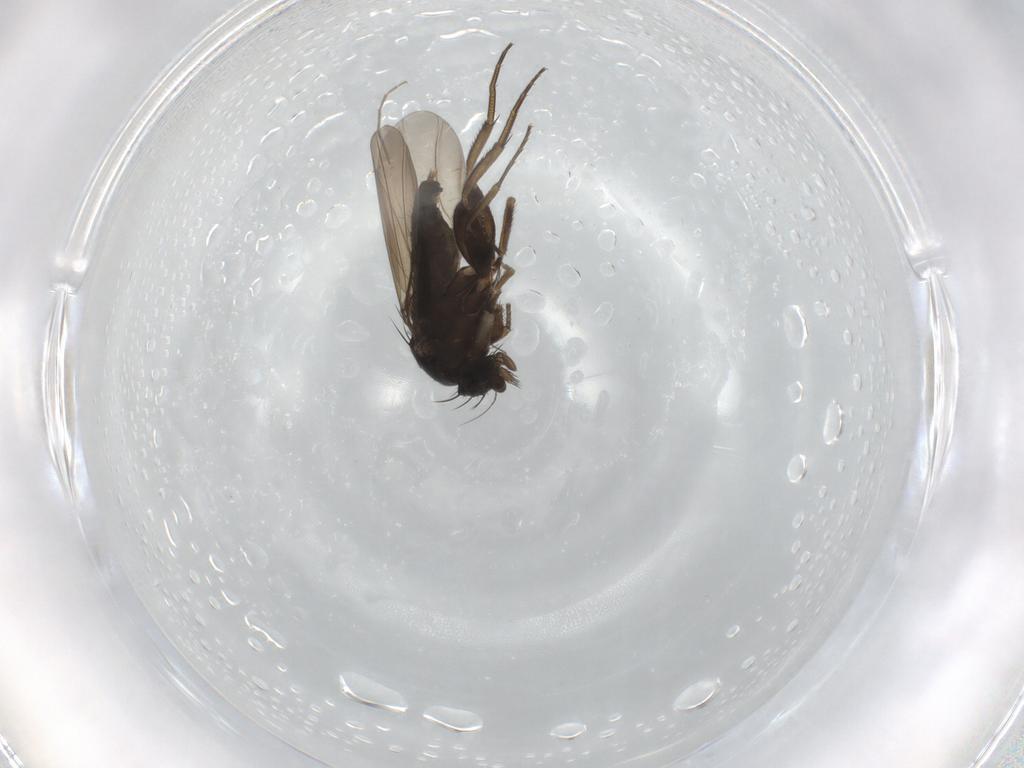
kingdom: Animalia
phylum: Arthropoda
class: Insecta
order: Diptera
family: Phoridae
